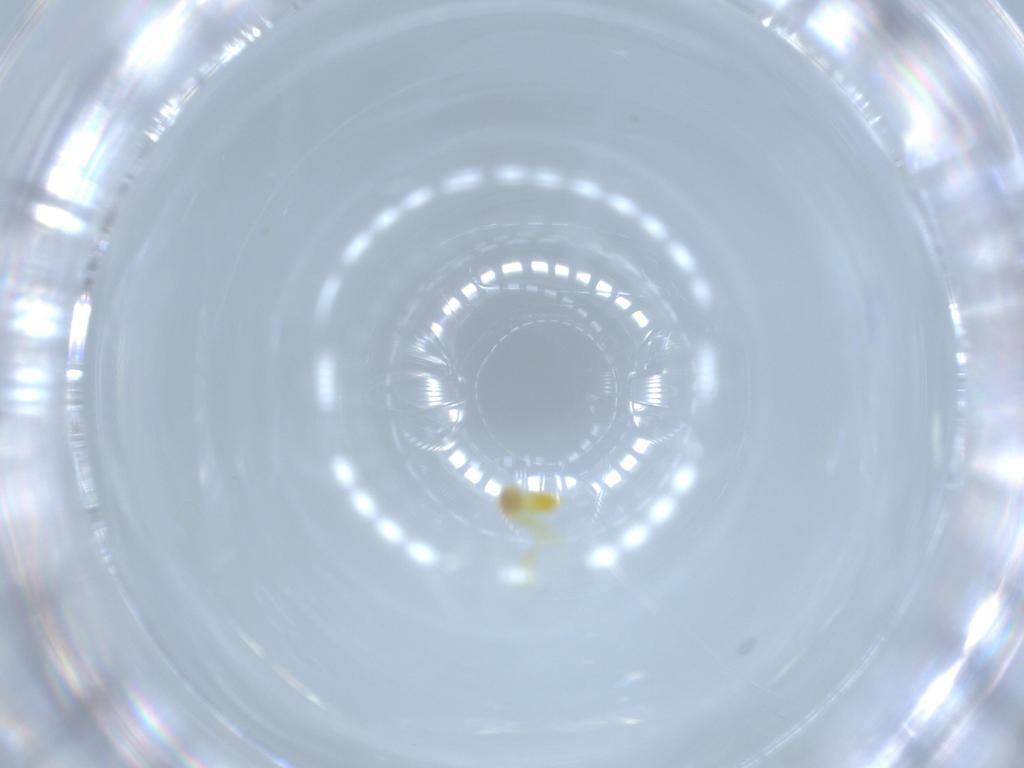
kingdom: Animalia
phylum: Arthropoda
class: Insecta
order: Hemiptera
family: Aleyrodidae
